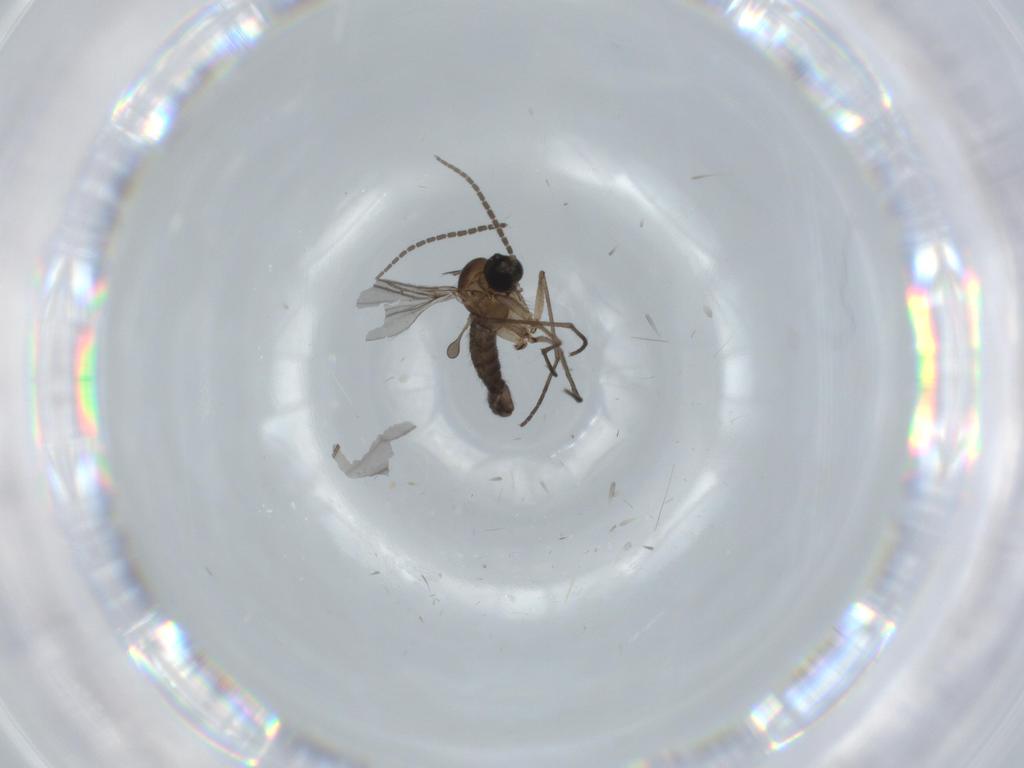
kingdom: Animalia
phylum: Arthropoda
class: Insecta
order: Diptera
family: Sciaridae
